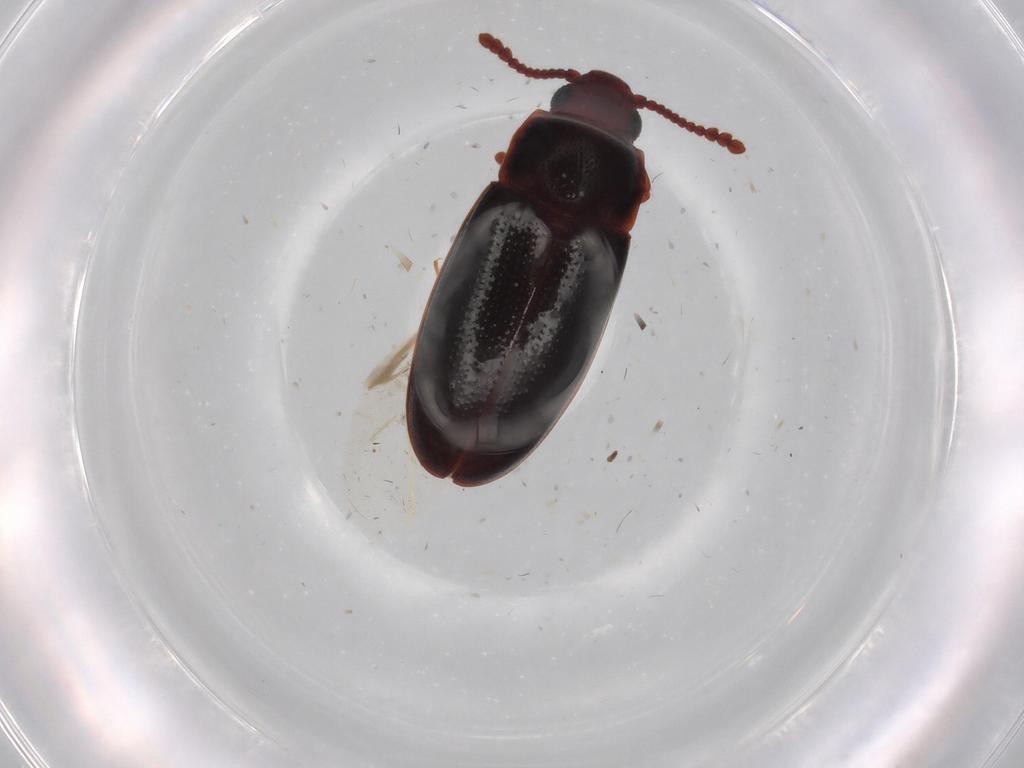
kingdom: Animalia
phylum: Arthropoda
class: Insecta
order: Coleoptera
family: Erotylidae
